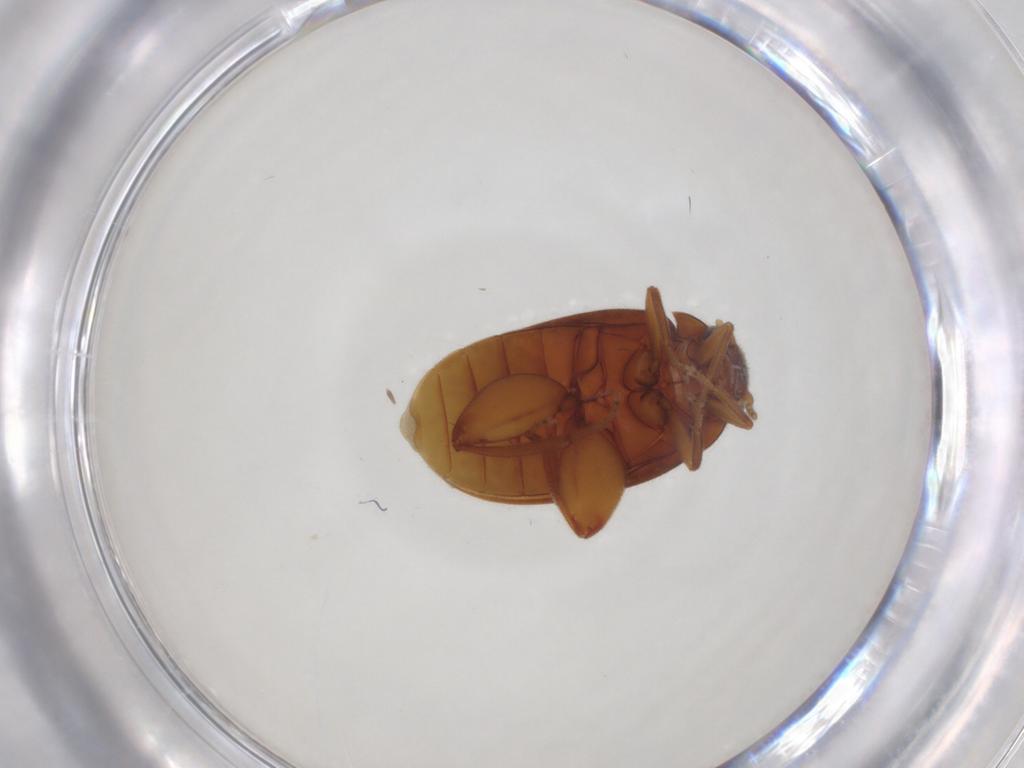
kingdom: Animalia
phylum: Arthropoda
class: Insecta
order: Coleoptera
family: Scirtidae
